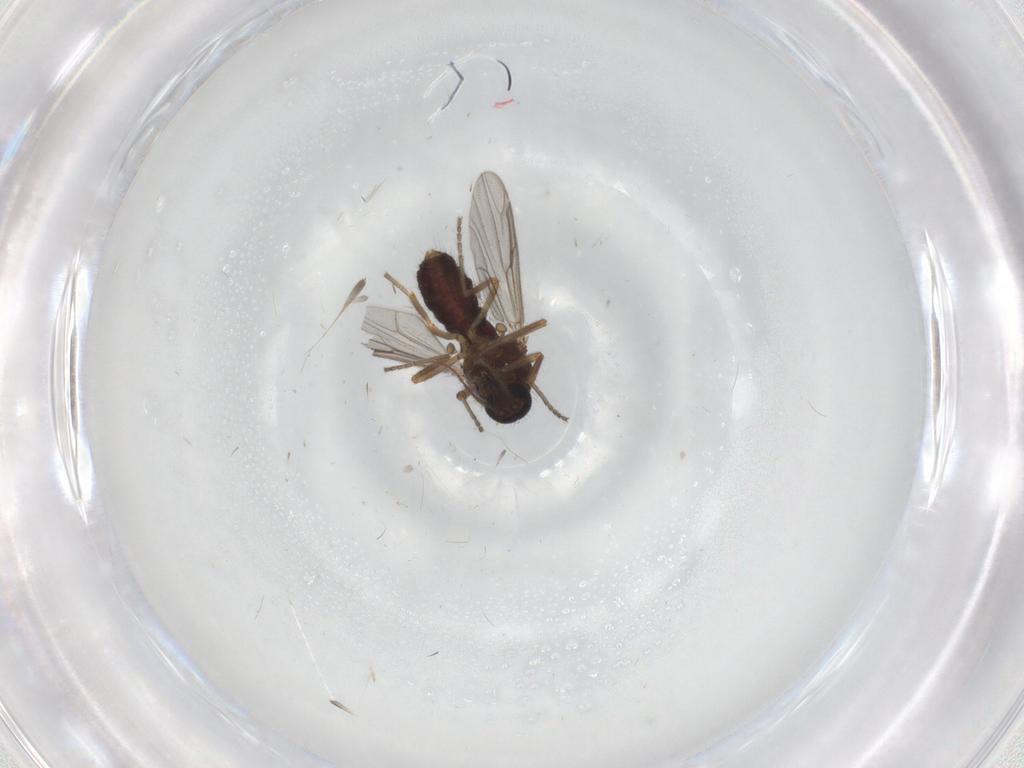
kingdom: Animalia
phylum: Arthropoda
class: Insecta
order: Diptera
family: Ceratopogonidae
